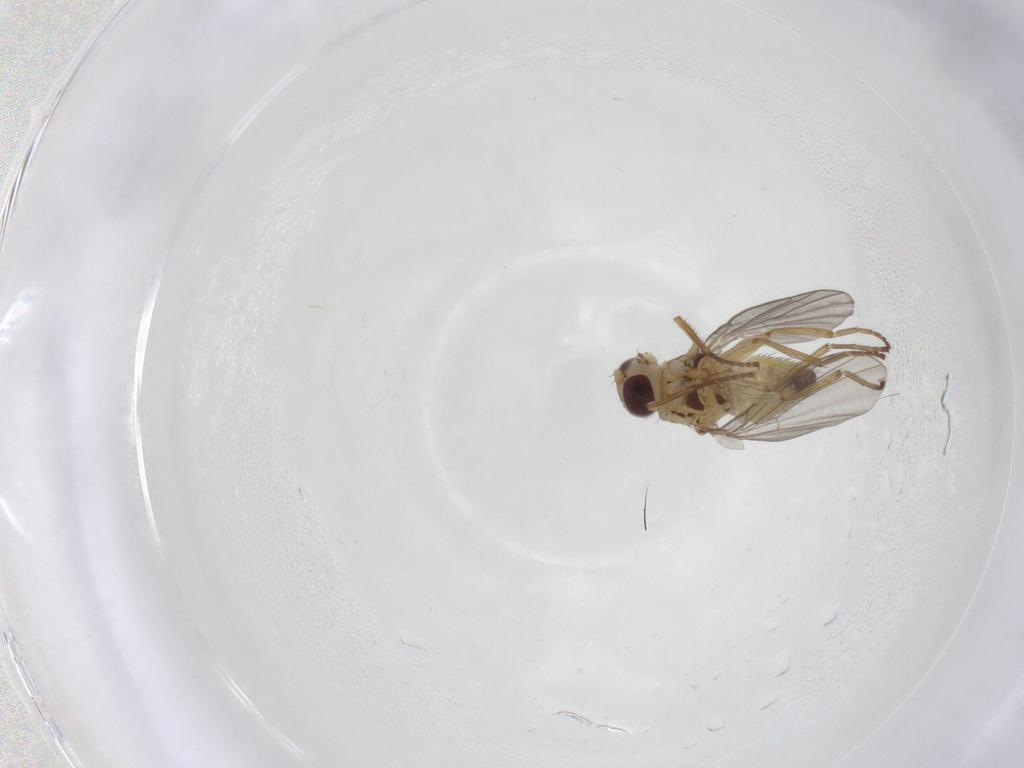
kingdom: Animalia
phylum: Arthropoda
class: Insecta
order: Diptera
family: Agromyzidae
